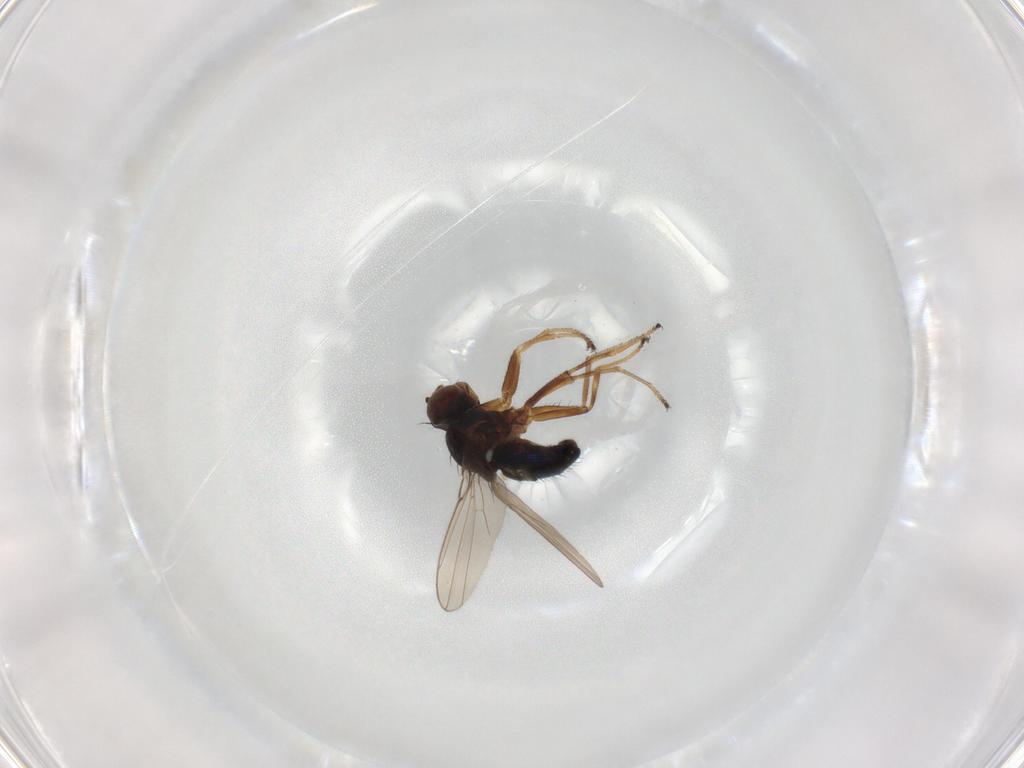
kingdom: Animalia
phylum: Arthropoda
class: Insecta
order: Diptera
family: Ephydridae
